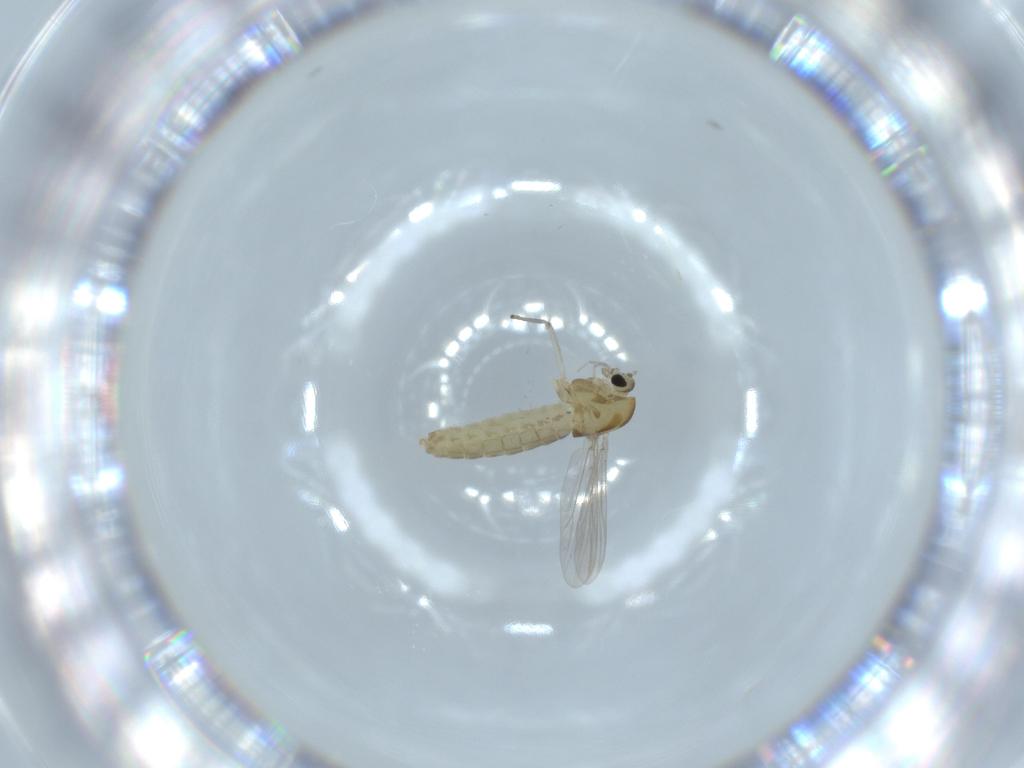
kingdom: Animalia
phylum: Arthropoda
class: Insecta
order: Diptera
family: Chironomidae
